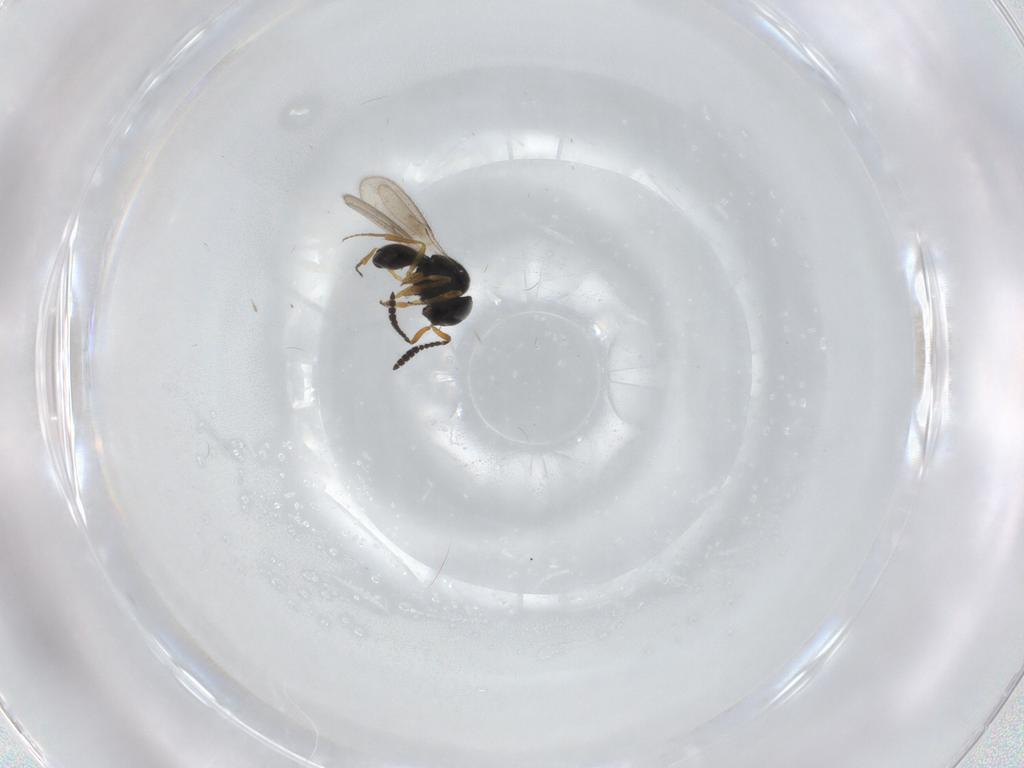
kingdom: Animalia
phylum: Arthropoda
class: Insecta
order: Hymenoptera
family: Scelionidae
